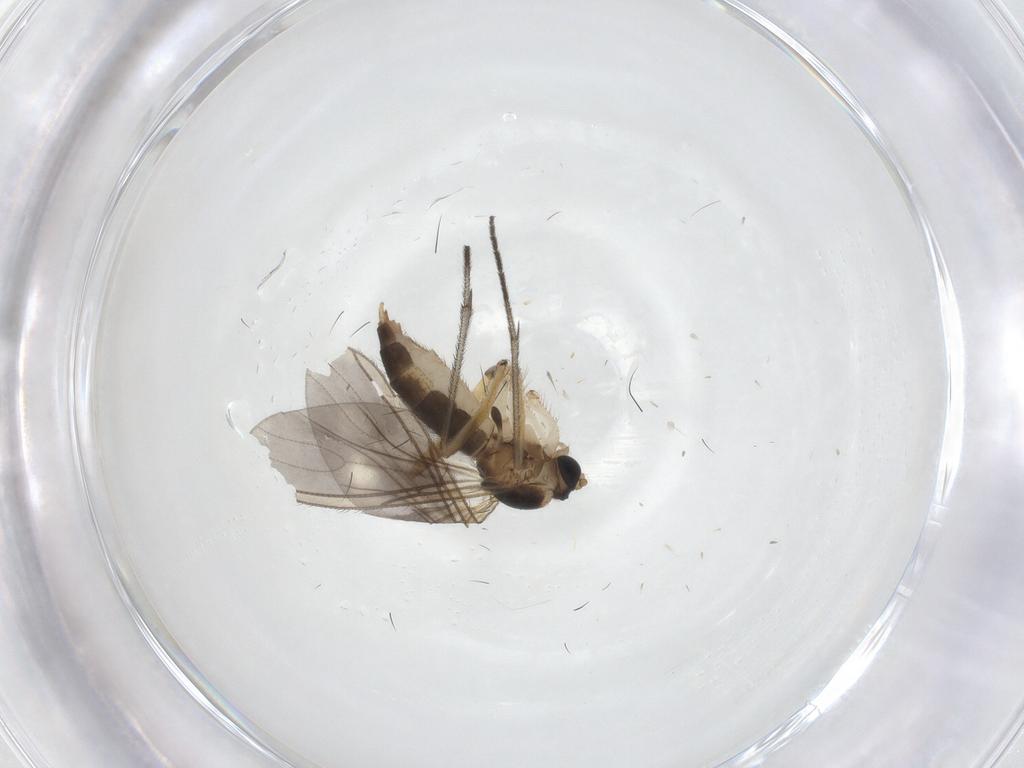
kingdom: Animalia
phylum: Arthropoda
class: Insecta
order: Diptera
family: Sciaridae
